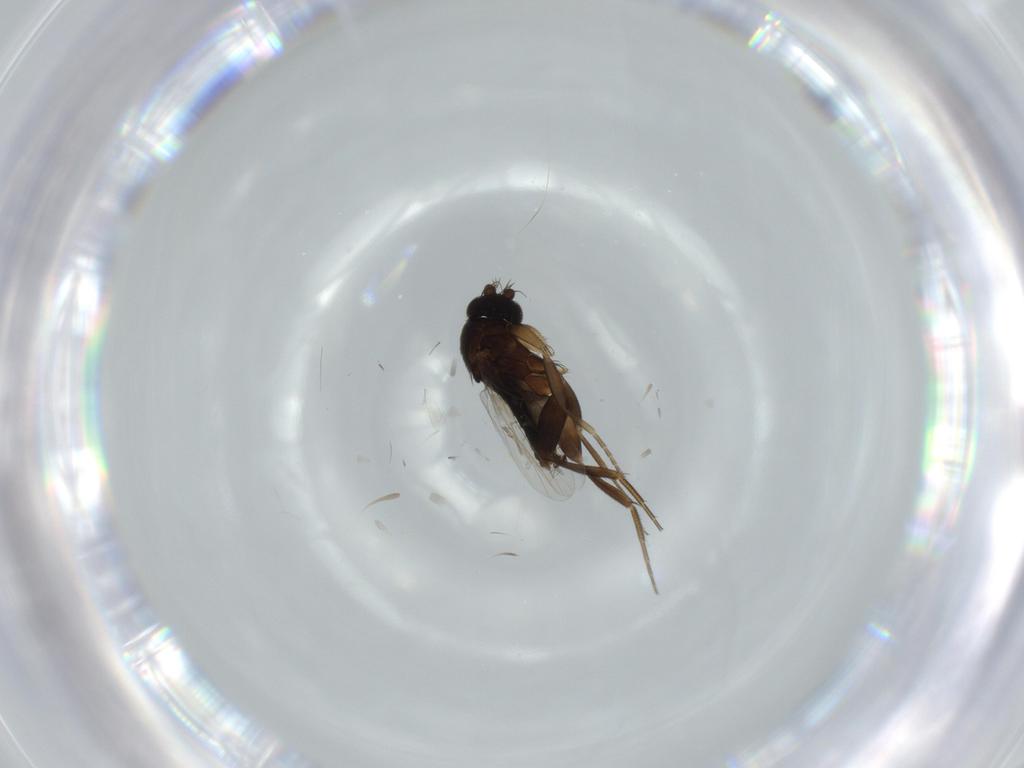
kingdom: Animalia
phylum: Arthropoda
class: Insecta
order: Diptera
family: Phoridae
